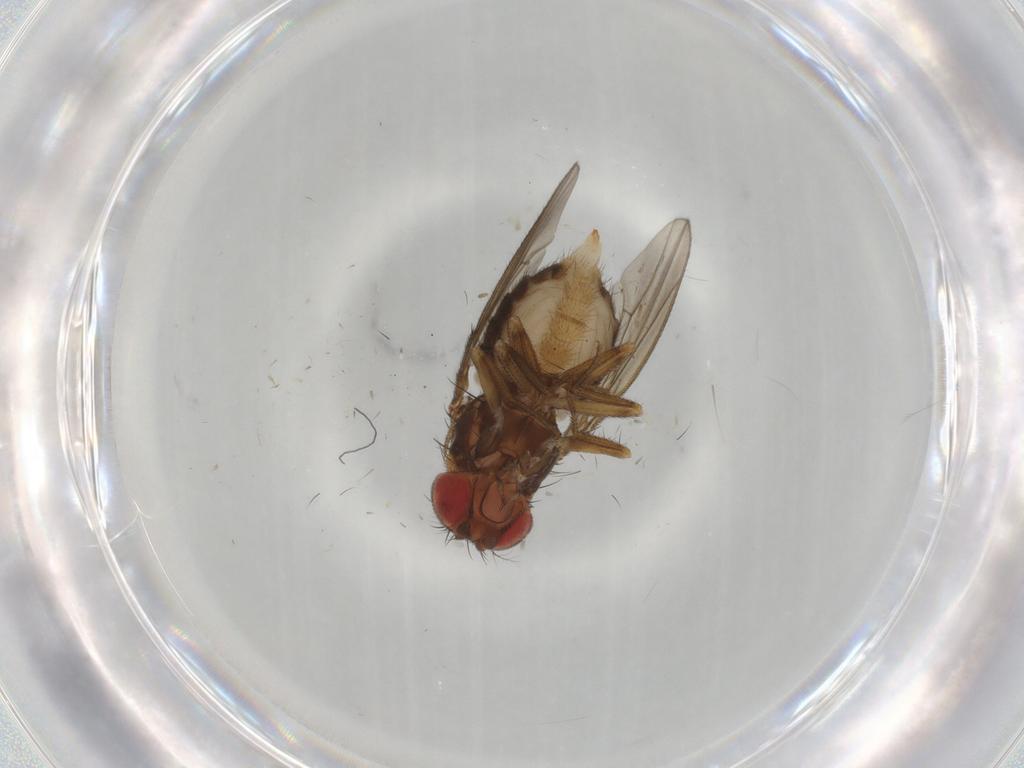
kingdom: Animalia
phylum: Arthropoda
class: Insecta
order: Diptera
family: Drosophilidae
